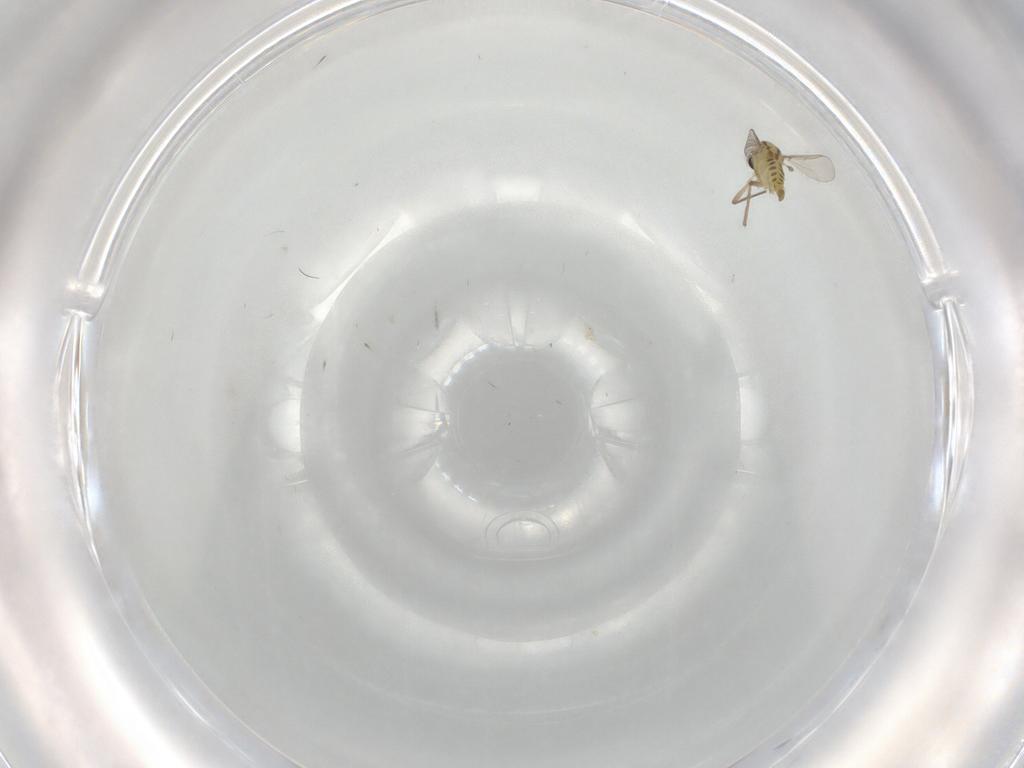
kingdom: Animalia
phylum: Arthropoda
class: Insecta
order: Diptera
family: Chironomidae
